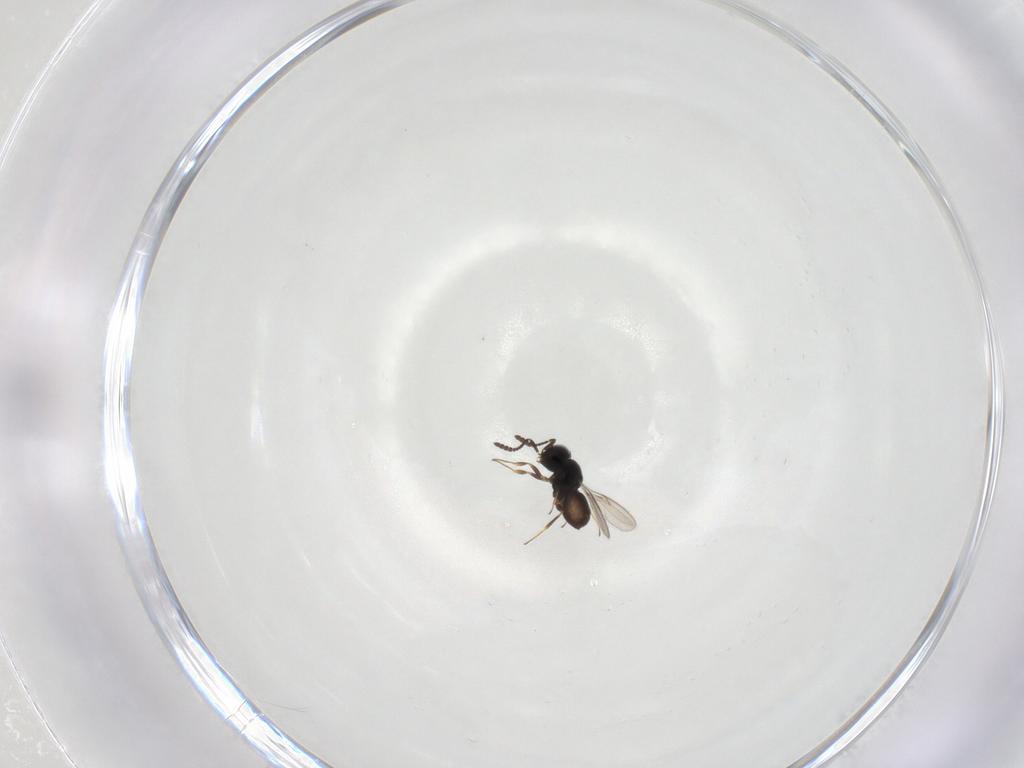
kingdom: Animalia
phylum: Arthropoda
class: Insecta
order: Hymenoptera
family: Scelionidae
